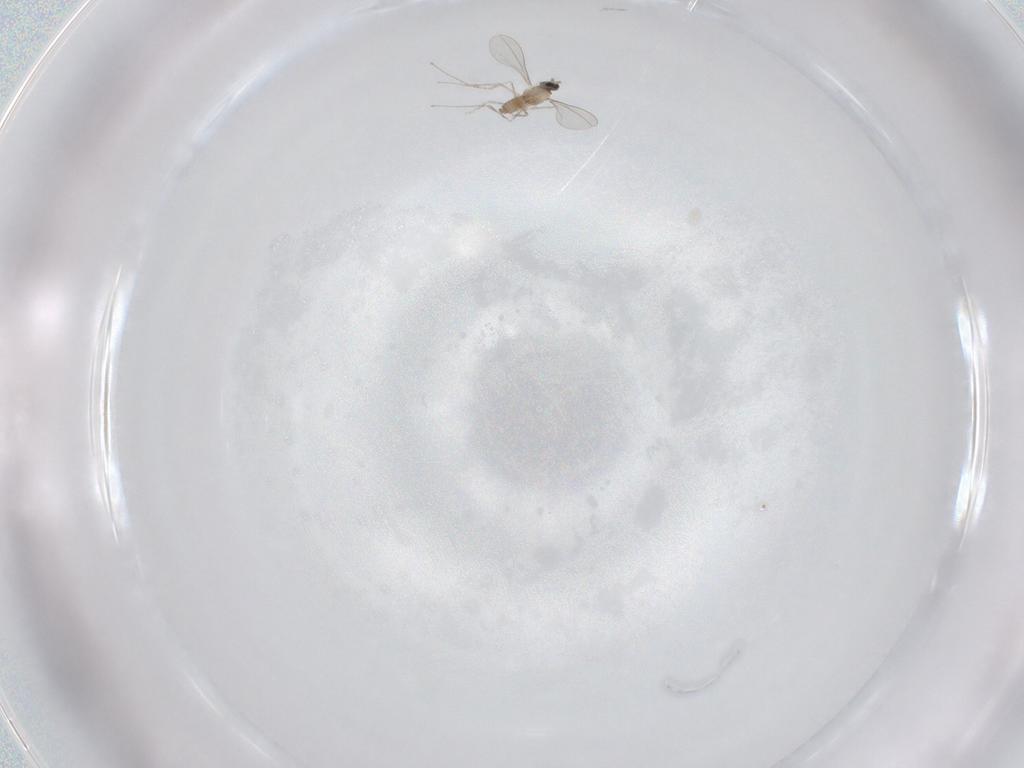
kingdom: Animalia
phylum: Arthropoda
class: Insecta
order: Diptera
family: Cecidomyiidae
